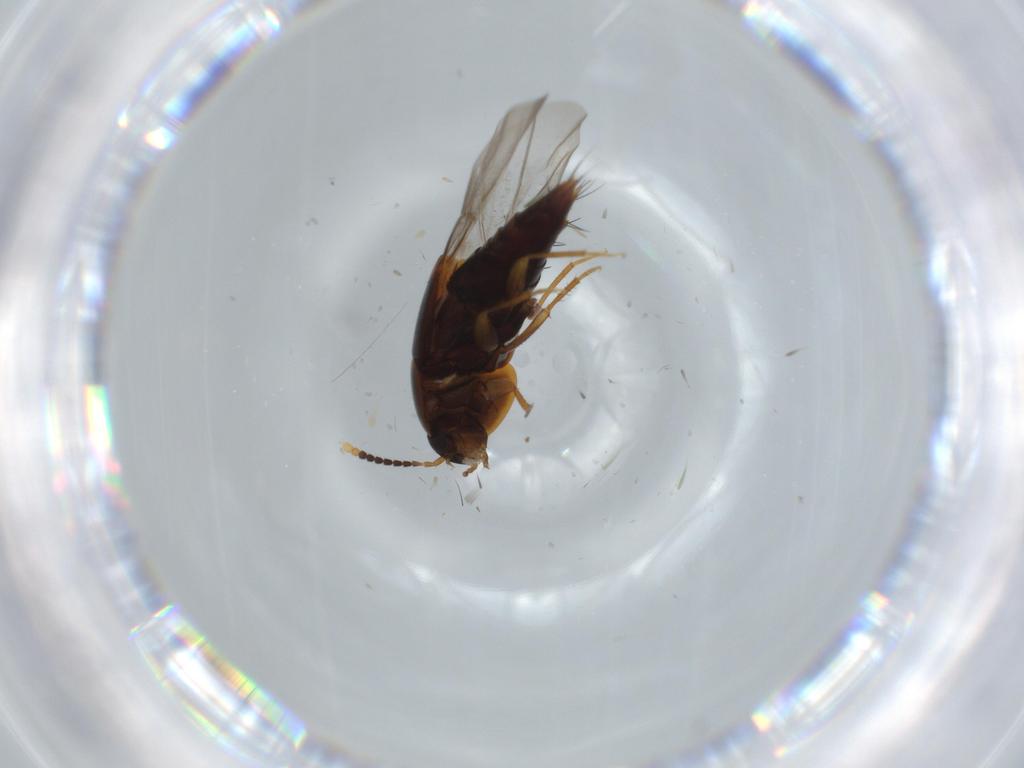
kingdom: Animalia
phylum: Arthropoda
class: Insecta
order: Coleoptera
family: Staphylinidae
